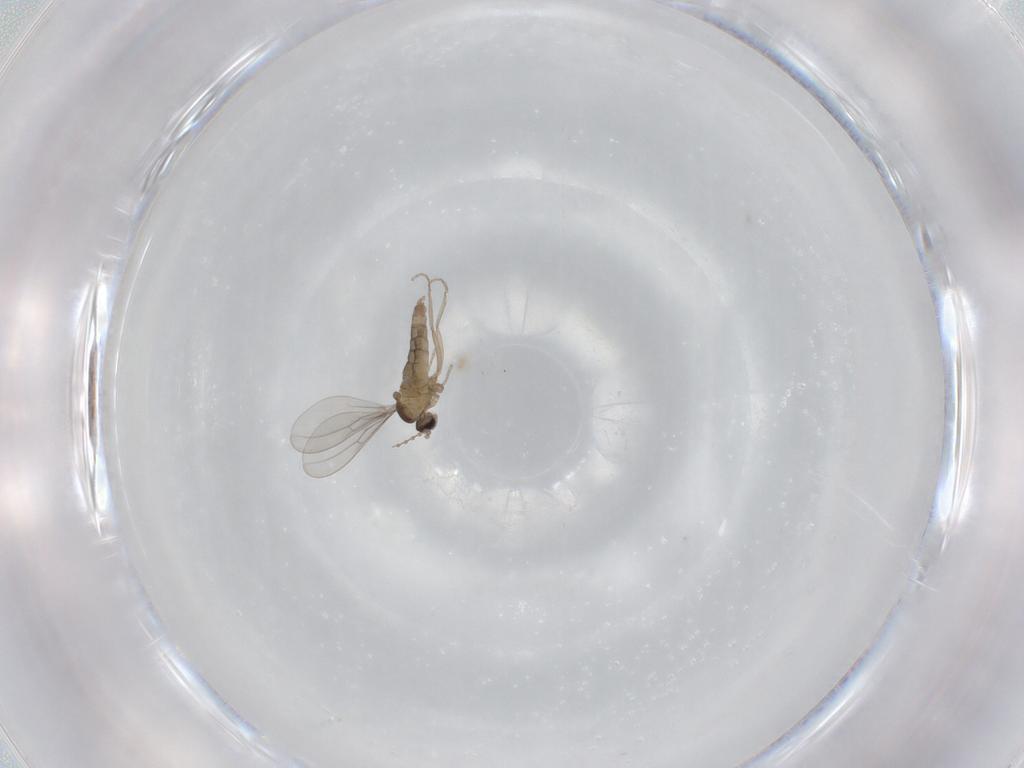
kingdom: Animalia
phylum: Arthropoda
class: Insecta
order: Diptera
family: Cecidomyiidae
